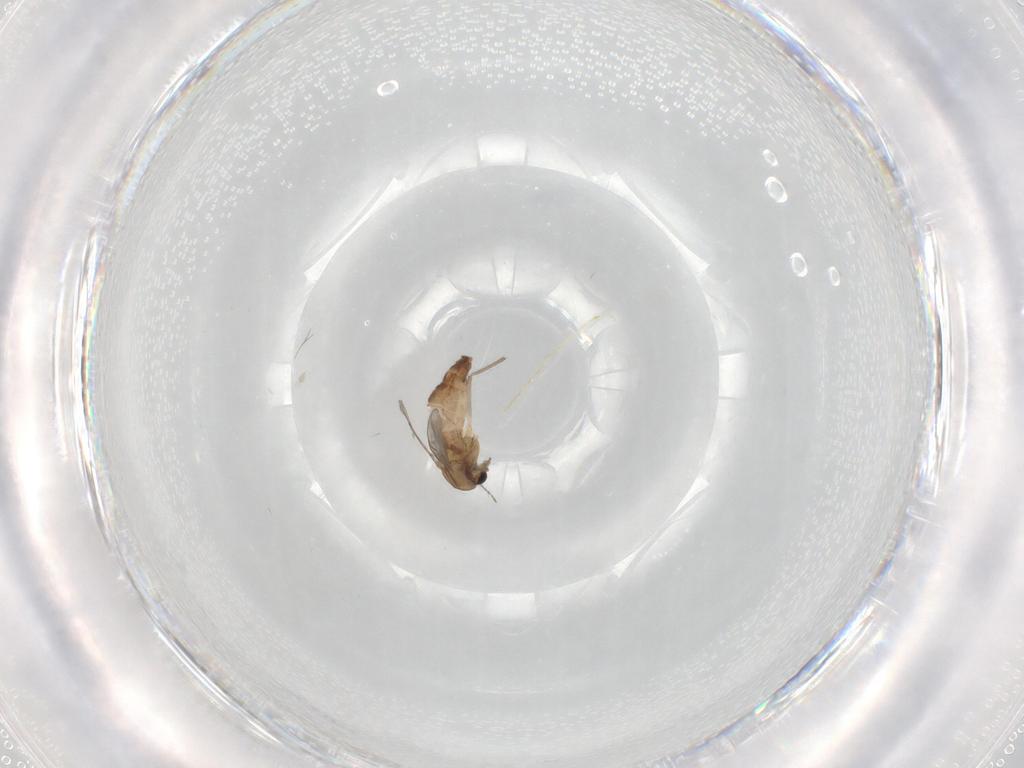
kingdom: Animalia
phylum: Arthropoda
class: Insecta
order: Diptera
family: Chironomidae
